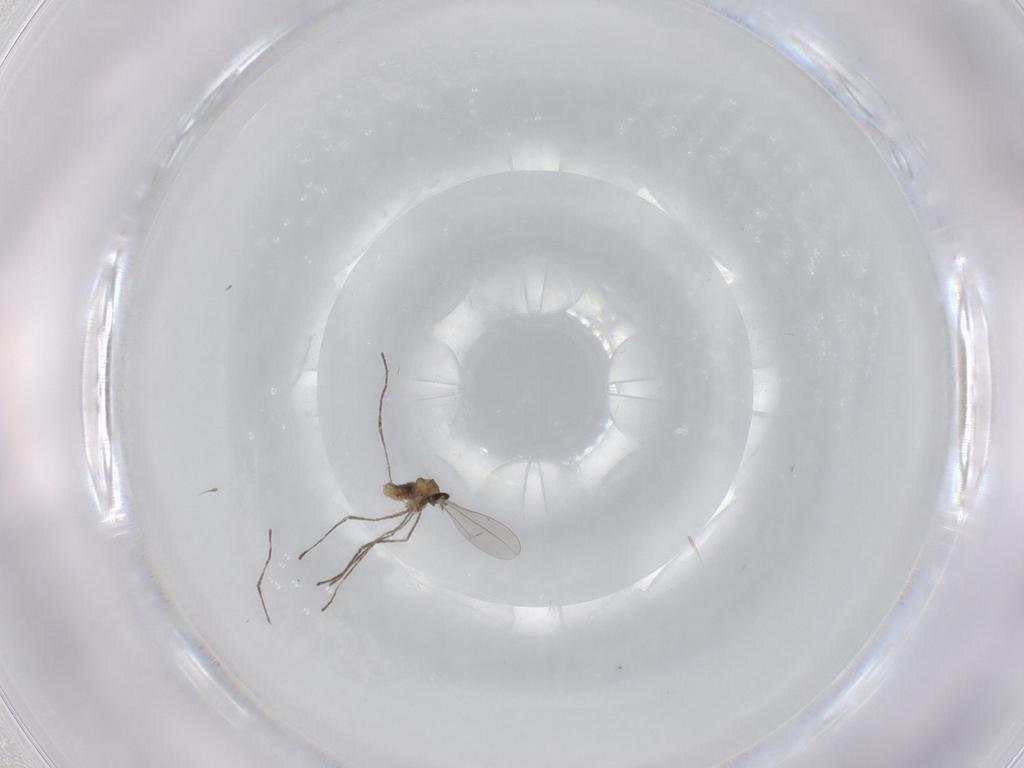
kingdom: Animalia
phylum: Arthropoda
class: Insecta
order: Diptera
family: Cecidomyiidae
